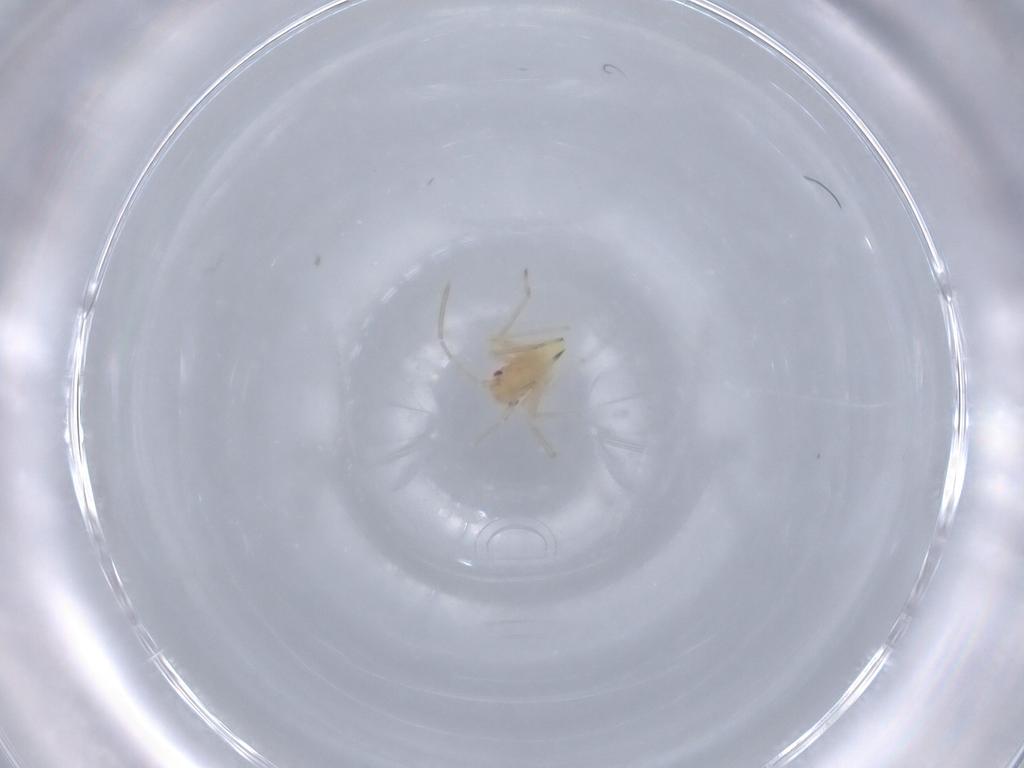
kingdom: Animalia
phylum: Arthropoda
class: Insecta
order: Hemiptera
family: Miridae
